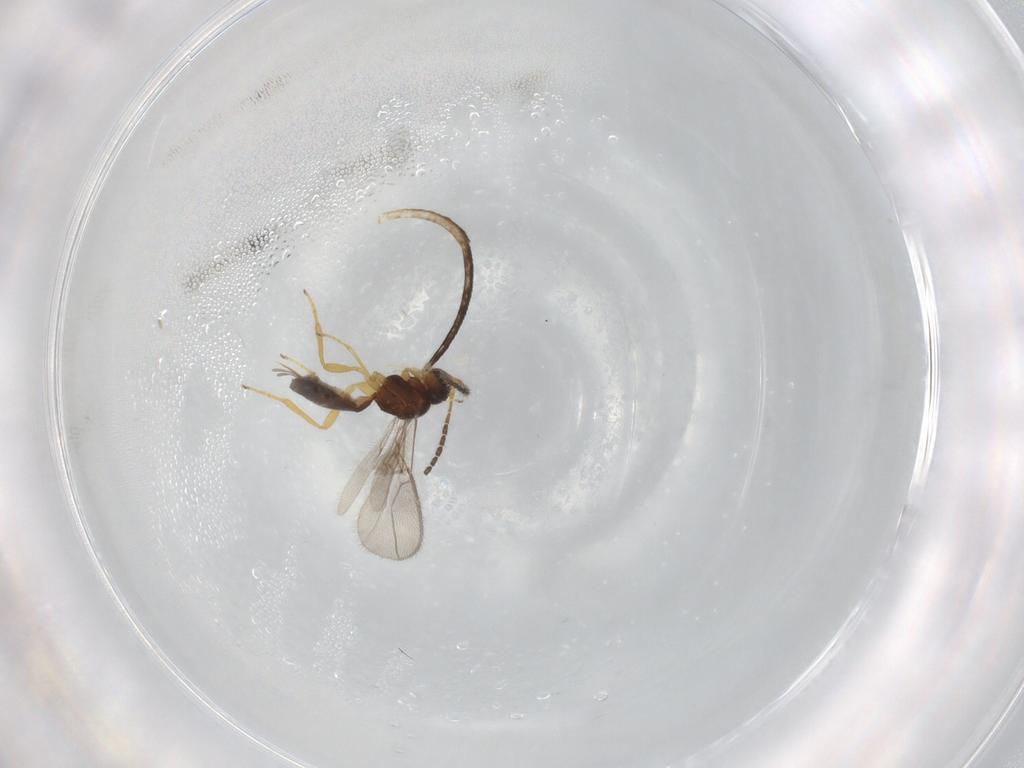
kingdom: Animalia
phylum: Arthropoda
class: Insecta
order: Hymenoptera
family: Braconidae
